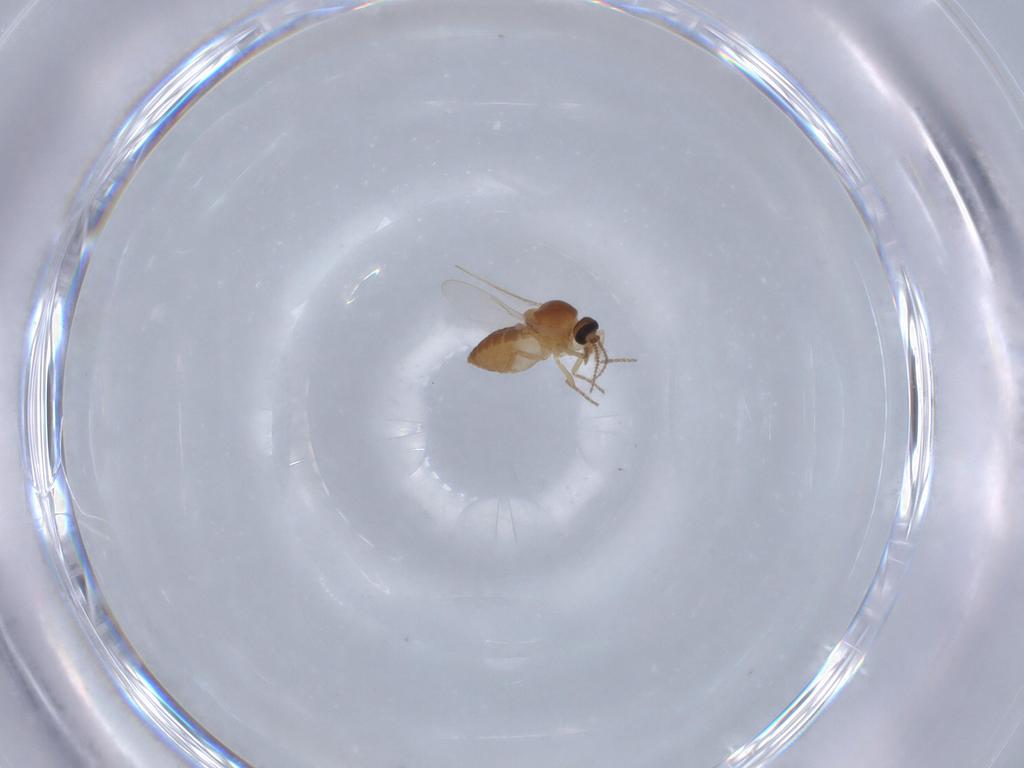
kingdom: Animalia
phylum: Arthropoda
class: Insecta
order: Diptera
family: Ceratopogonidae
